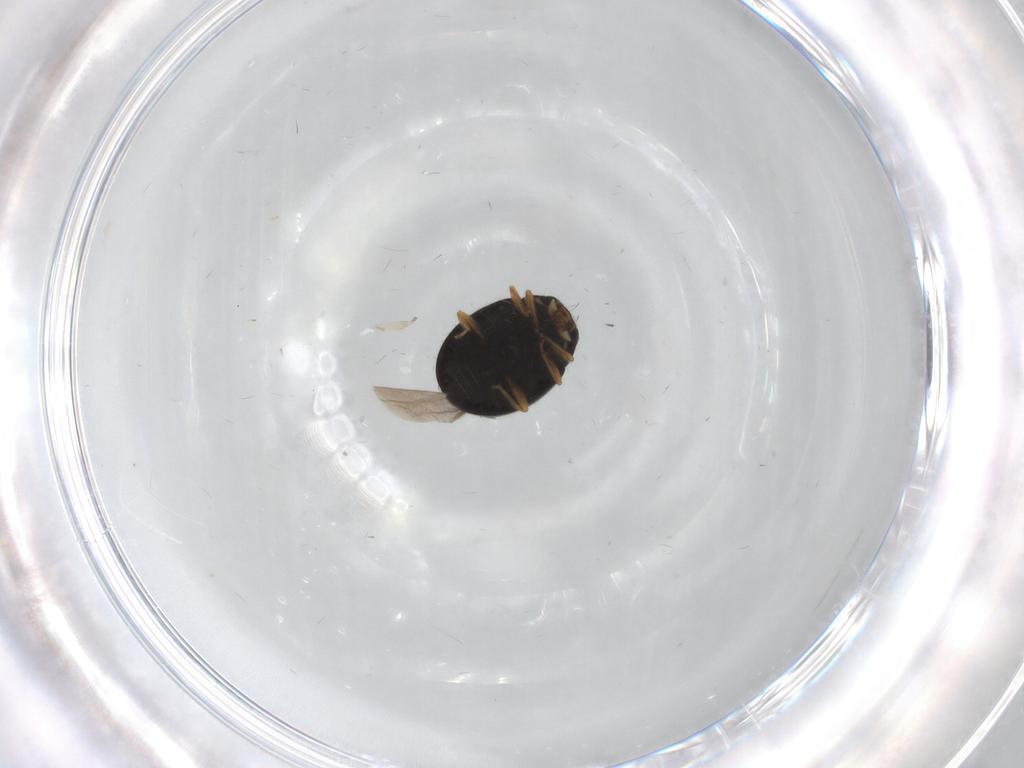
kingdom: Animalia
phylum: Arthropoda
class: Insecta
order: Coleoptera
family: Coccinellidae
